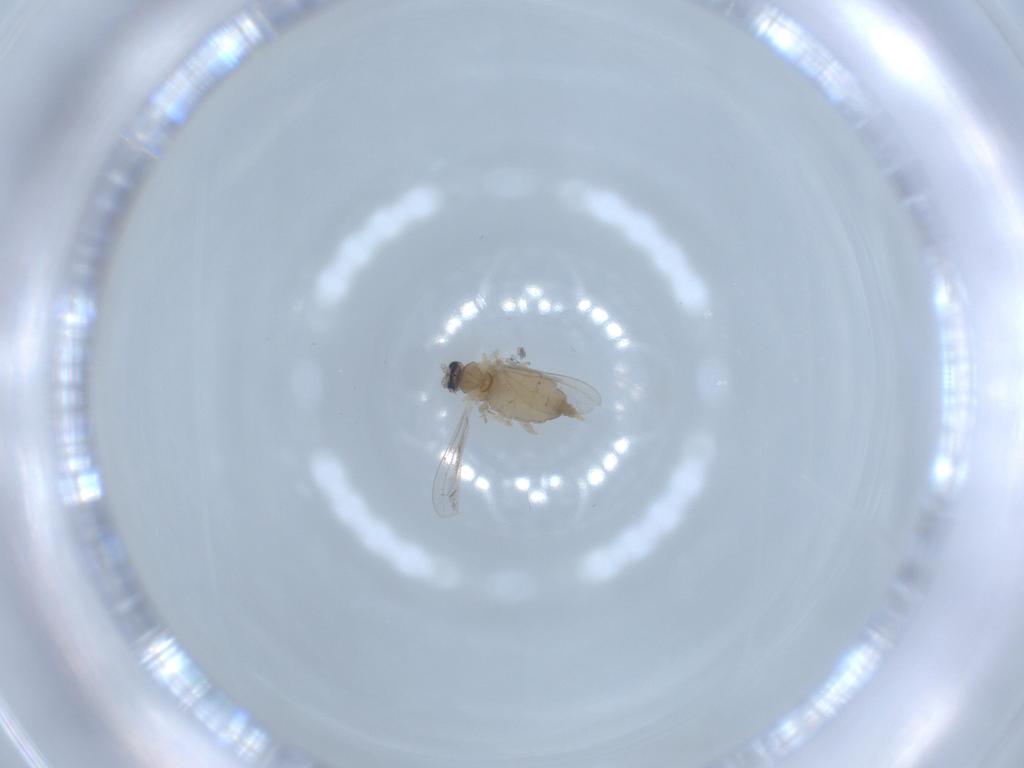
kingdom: Animalia
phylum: Arthropoda
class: Insecta
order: Diptera
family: Cecidomyiidae
